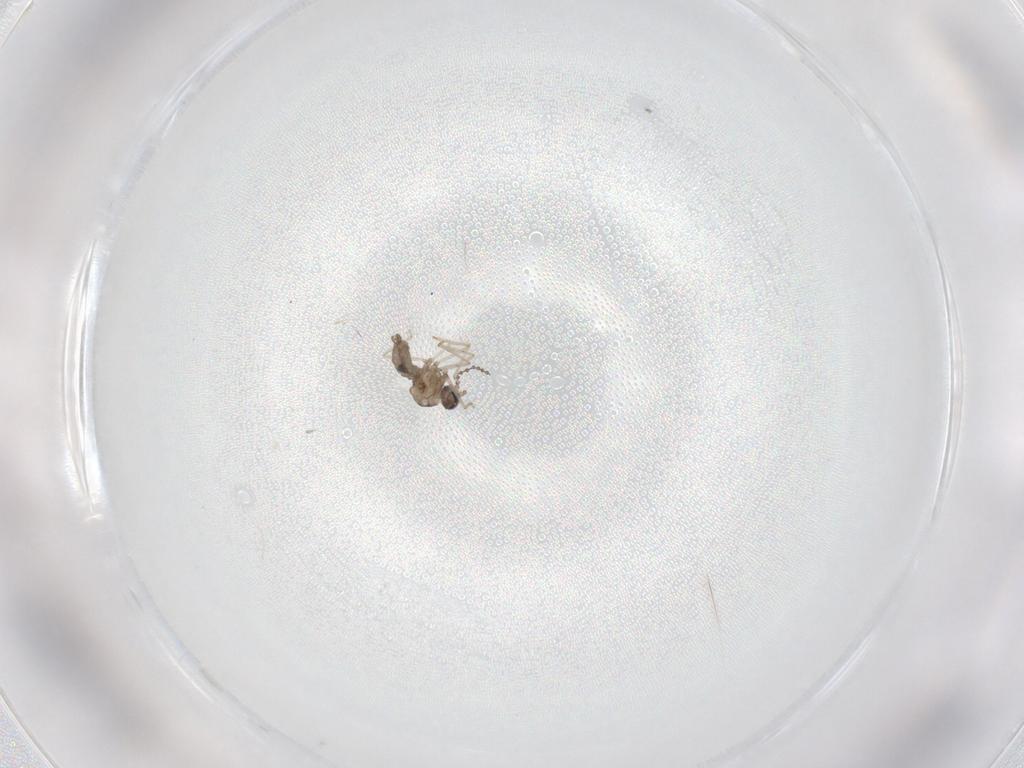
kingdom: Animalia
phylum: Arthropoda
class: Insecta
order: Diptera
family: Cecidomyiidae
